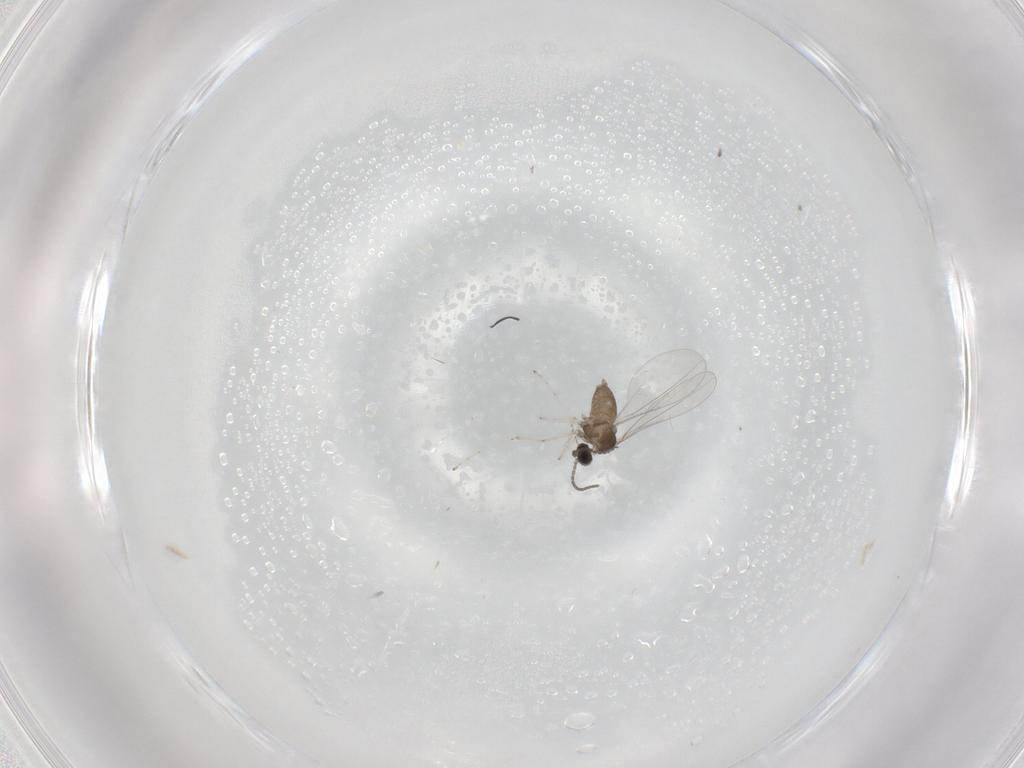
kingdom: Animalia
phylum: Arthropoda
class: Insecta
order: Diptera
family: Cecidomyiidae
